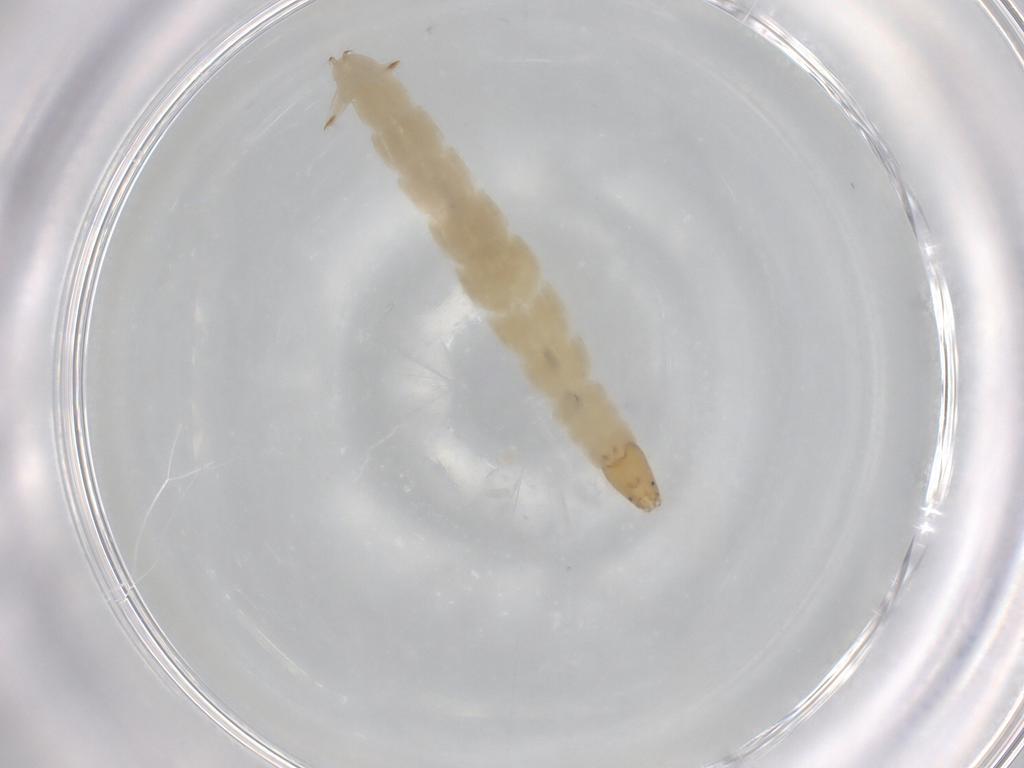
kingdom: Animalia
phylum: Arthropoda
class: Insecta
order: Diptera
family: Chironomidae
